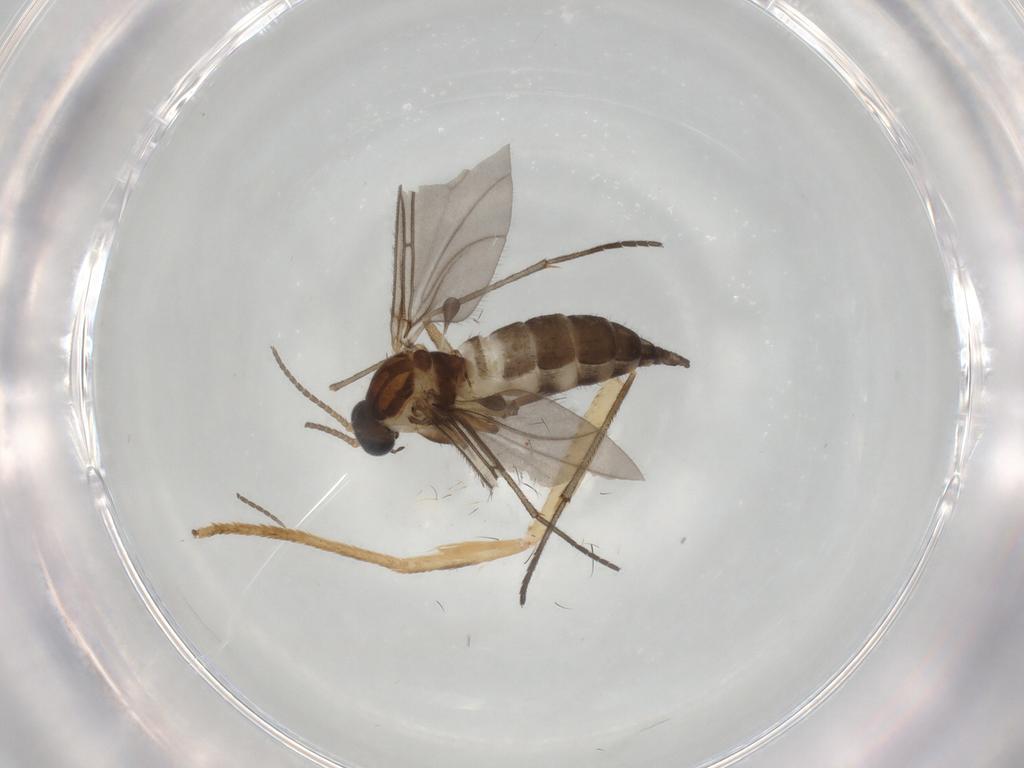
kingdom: Animalia
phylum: Arthropoda
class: Insecta
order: Diptera
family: Sciaridae
